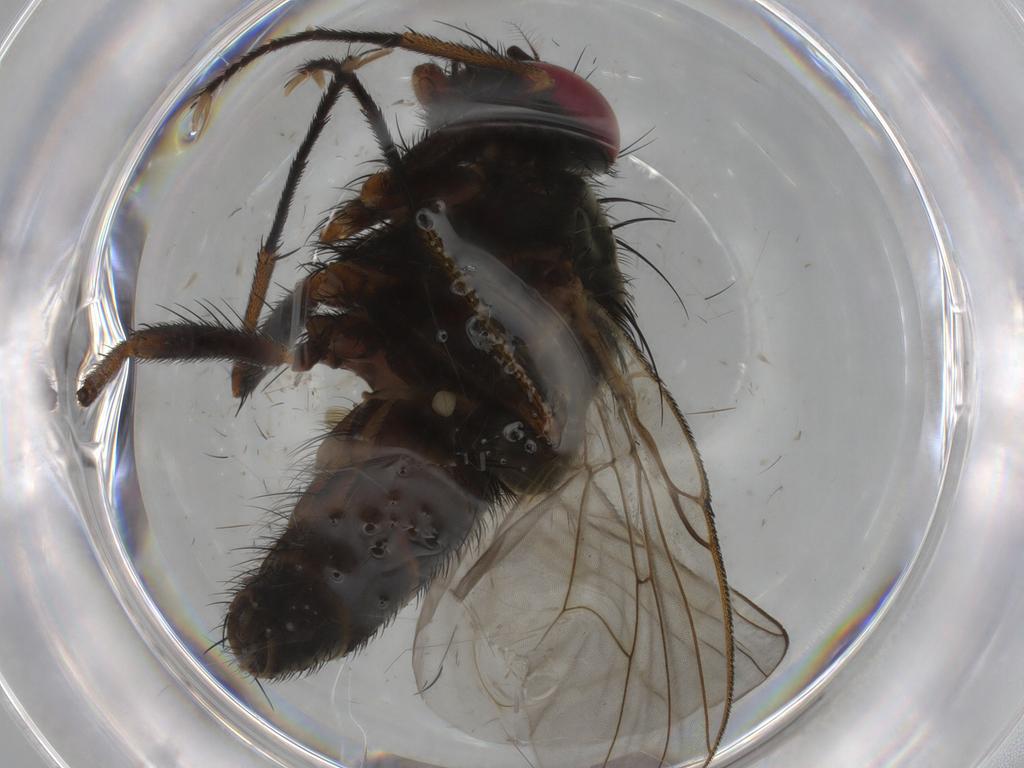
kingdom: Animalia
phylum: Arthropoda
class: Insecta
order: Diptera
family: Muscidae
